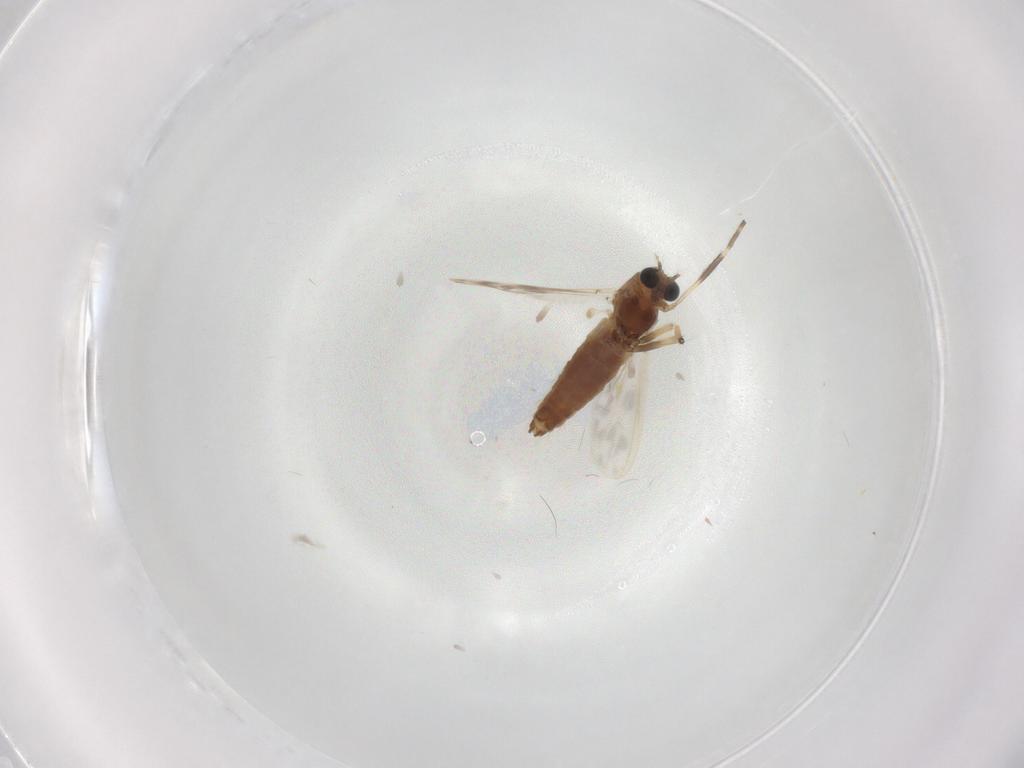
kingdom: Animalia
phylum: Arthropoda
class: Insecta
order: Diptera
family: Chironomidae
